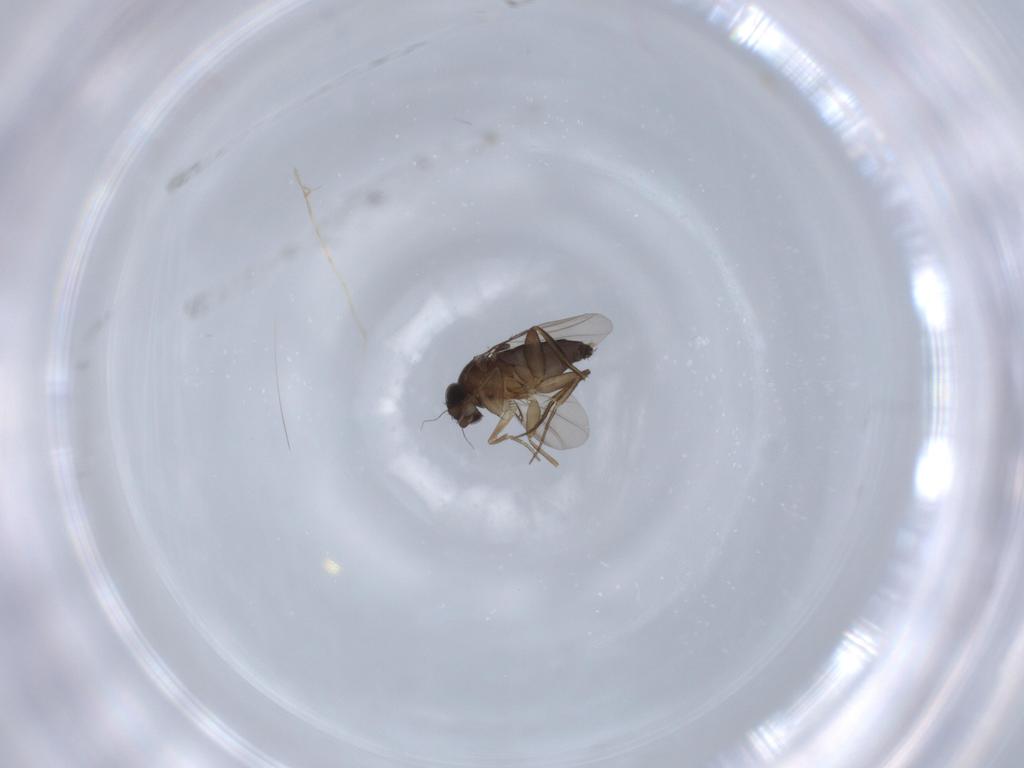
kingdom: Animalia
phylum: Arthropoda
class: Insecta
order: Diptera
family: Phoridae
